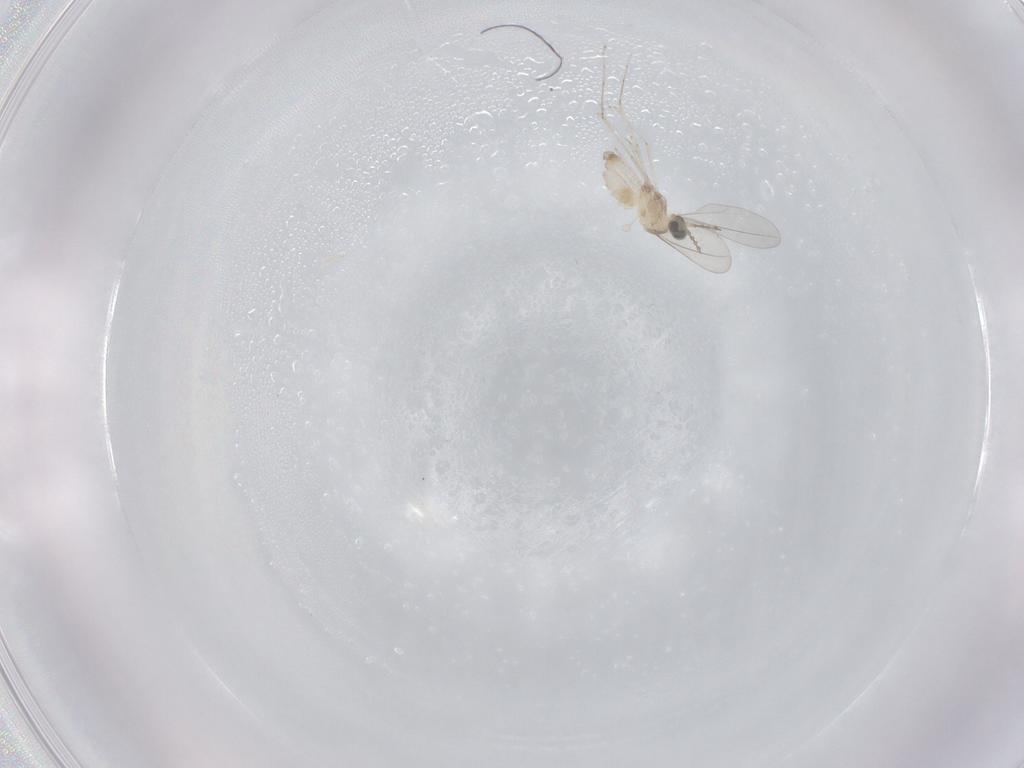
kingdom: Animalia
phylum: Arthropoda
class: Insecta
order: Diptera
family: Cecidomyiidae
